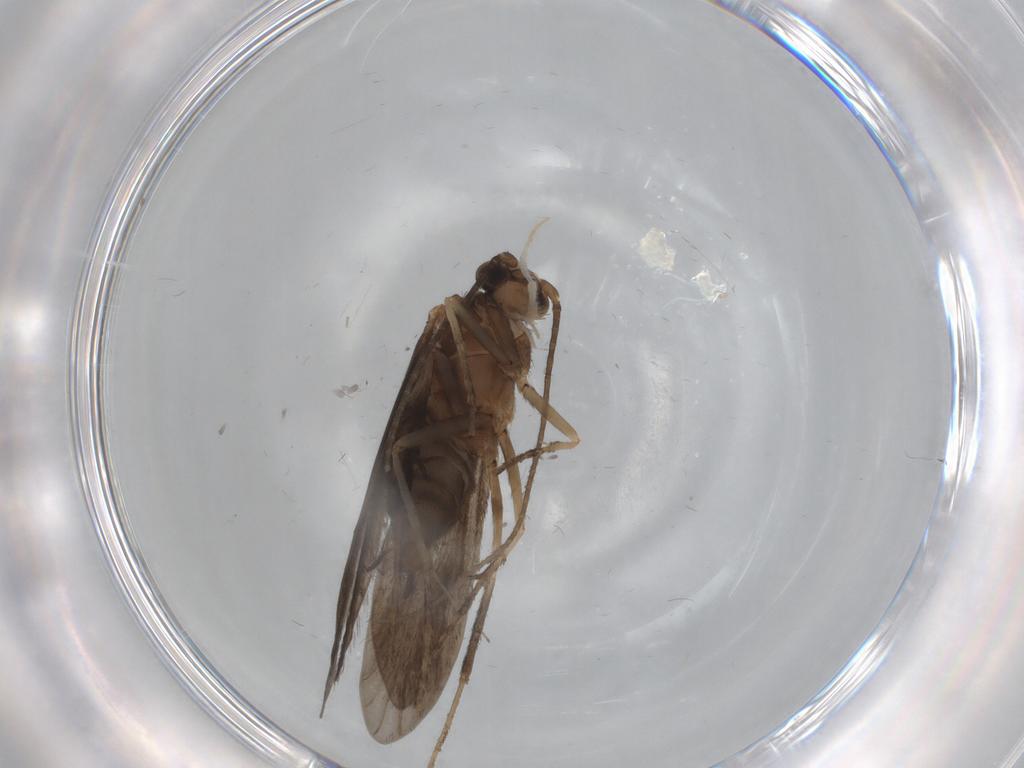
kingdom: Animalia
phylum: Arthropoda
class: Insecta
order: Trichoptera
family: Xiphocentronidae
